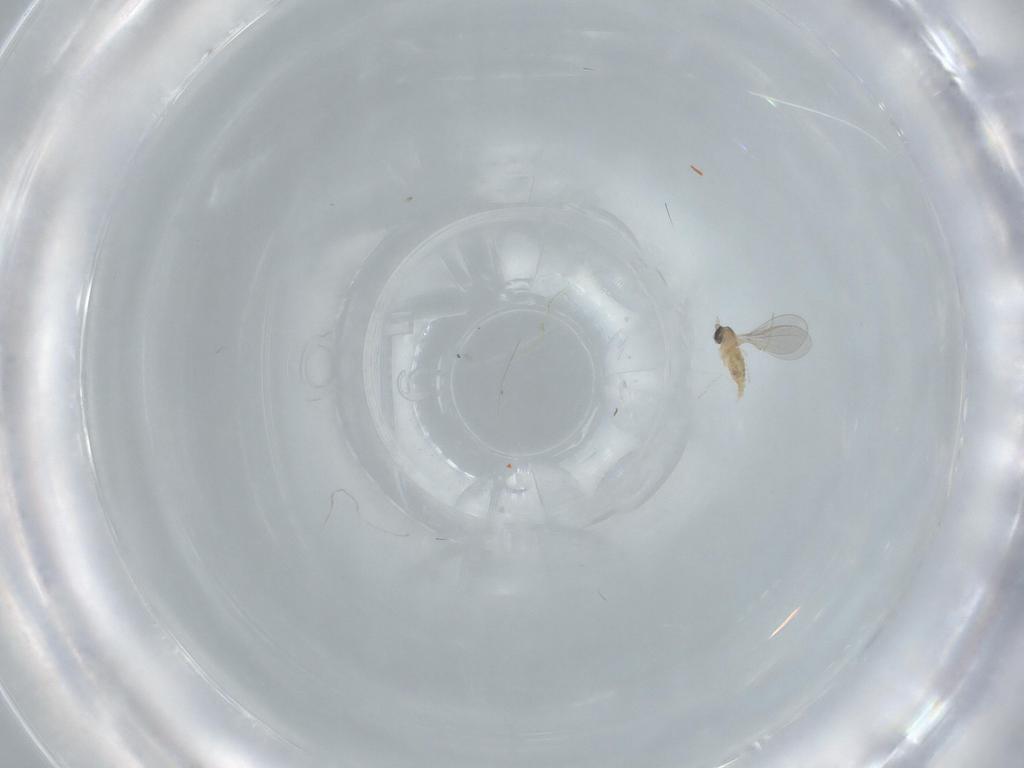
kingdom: Animalia
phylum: Arthropoda
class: Insecta
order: Diptera
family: Cecidomyiidae
